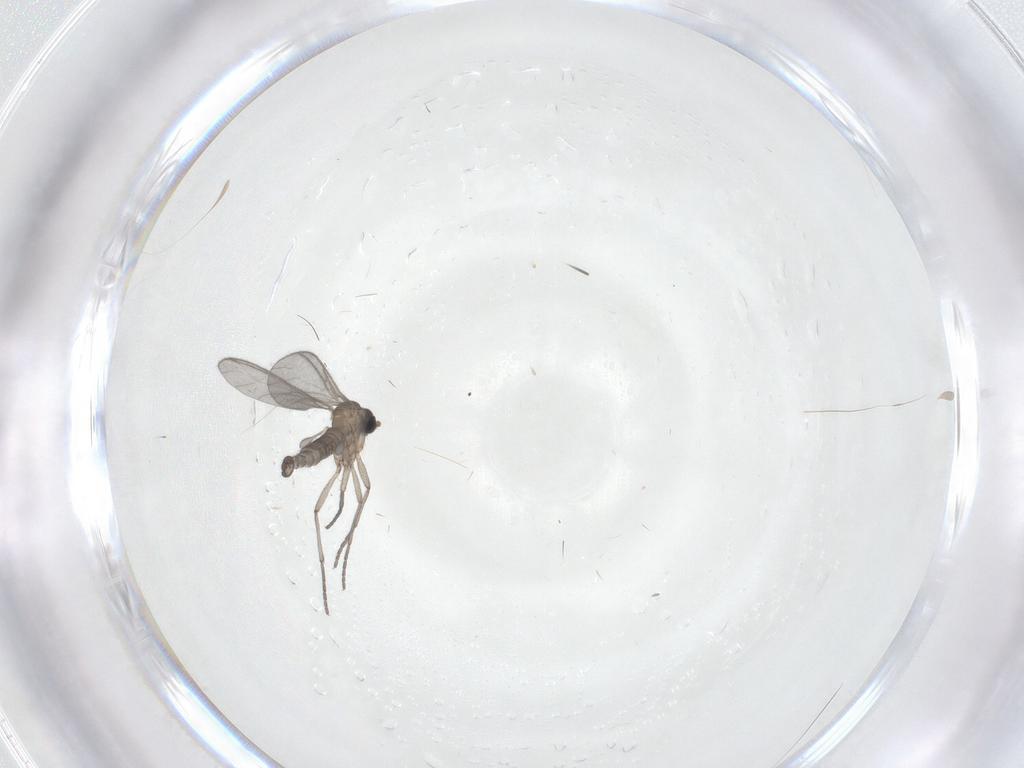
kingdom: Animalia
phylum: Arthropoda
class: Insecta
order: Diptera
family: Sciaridae
